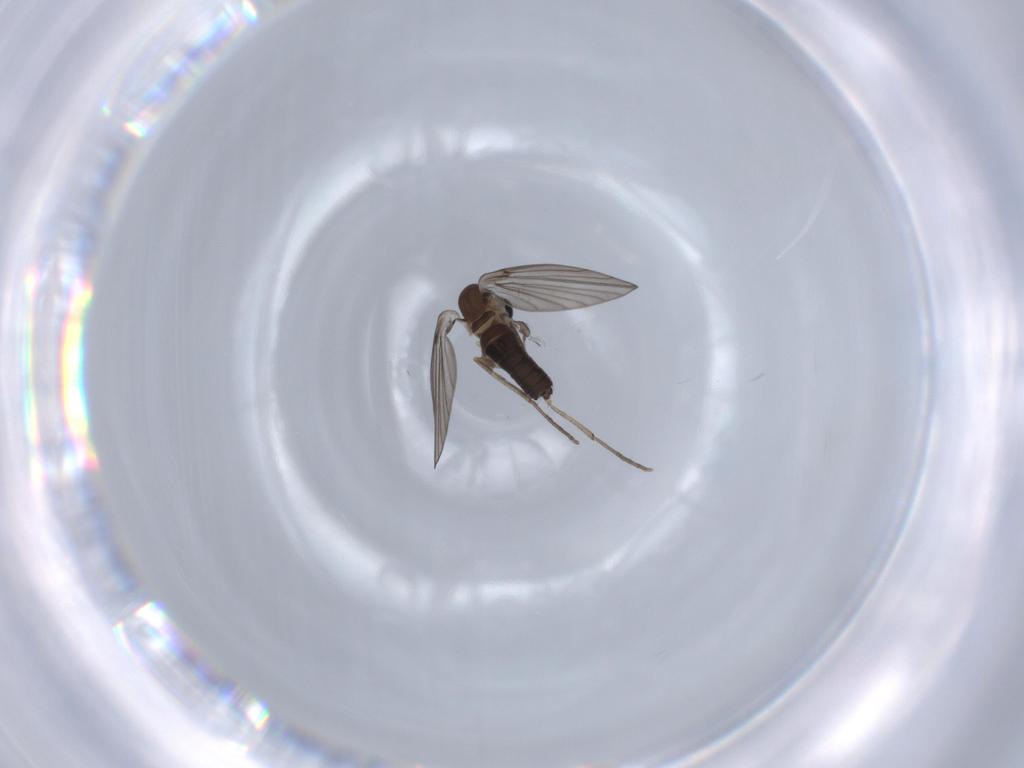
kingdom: Animalia
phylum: Arthropoda
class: Insecta
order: Diptera
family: Psychodidae
